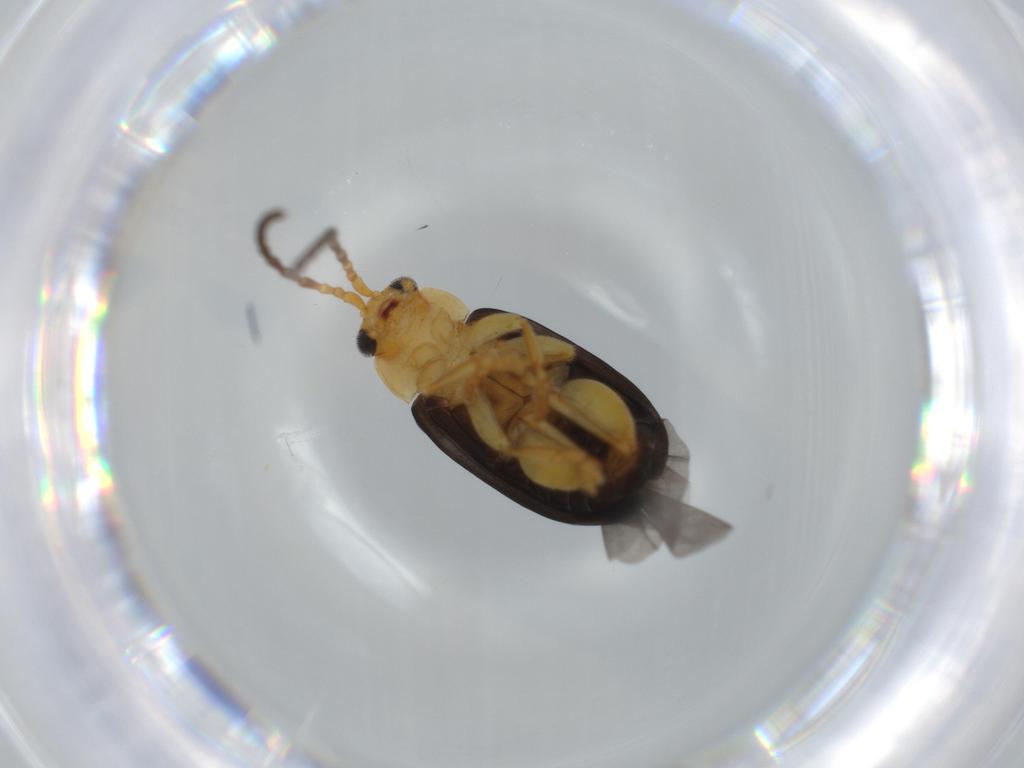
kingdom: Animalia
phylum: Arthropoda
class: Insecta
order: Coleoptera
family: Chrysomelidae
